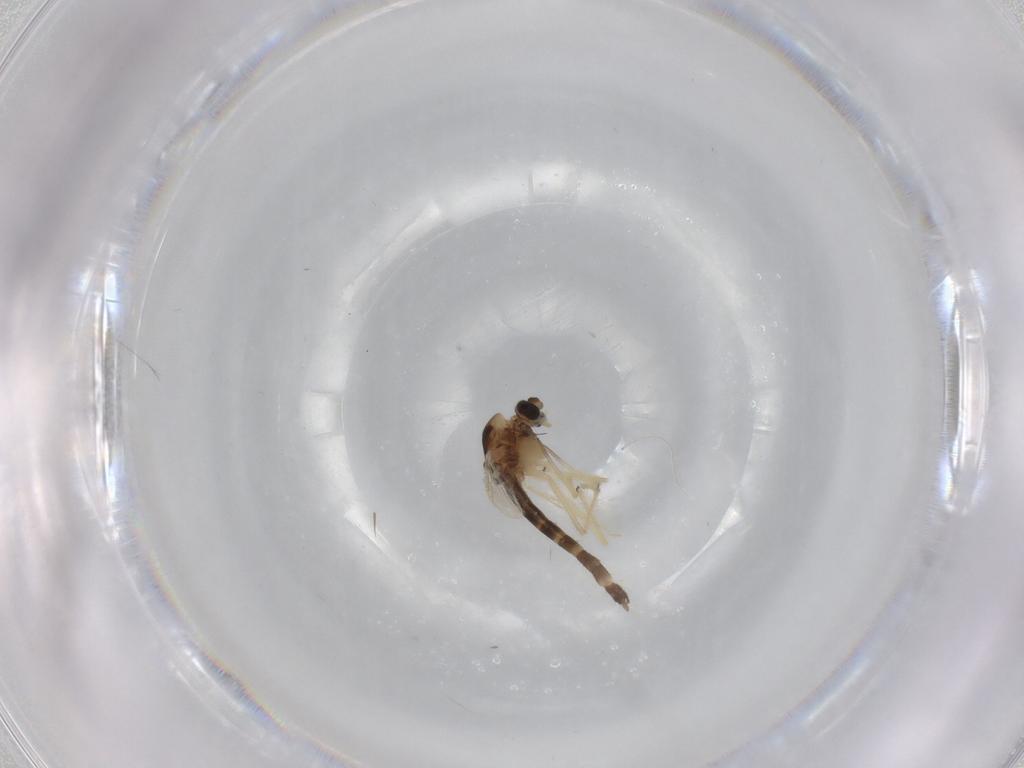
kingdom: Animalia
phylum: Arthropoda
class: Insecta
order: Diptera
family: Chironomidae
